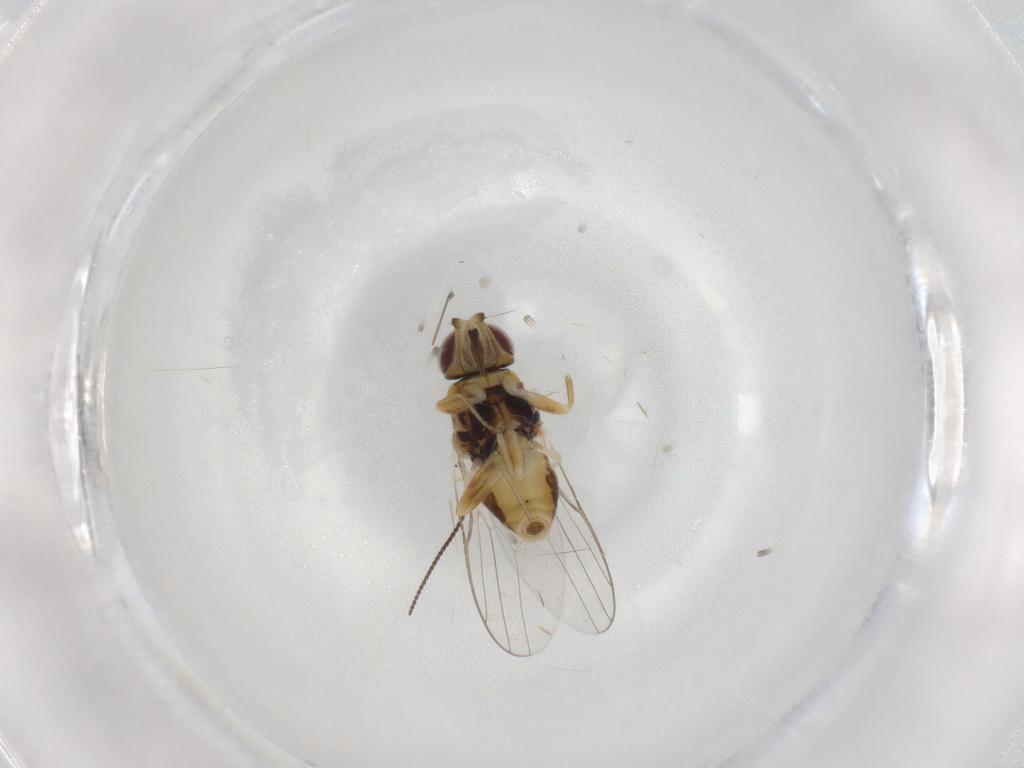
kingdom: Animalia
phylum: Arthropoda
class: Insecta
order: Diptera
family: Chloropidae
